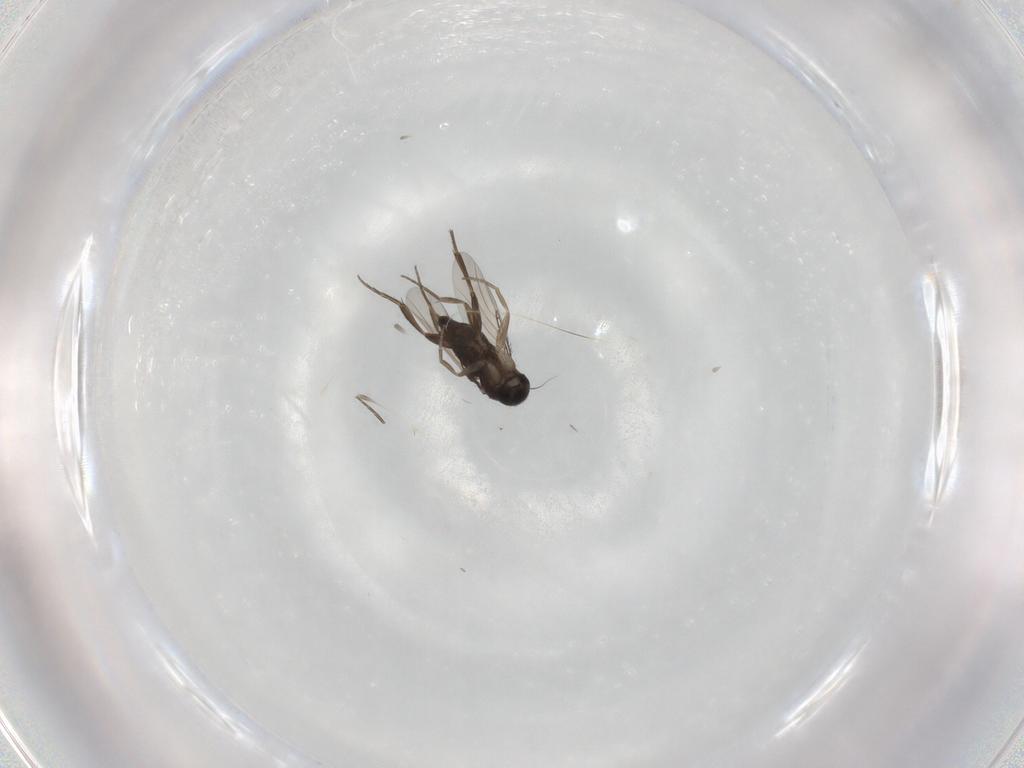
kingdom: Animalia
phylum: Arthropoda
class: Insecta
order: Diptera
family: Phoridae
